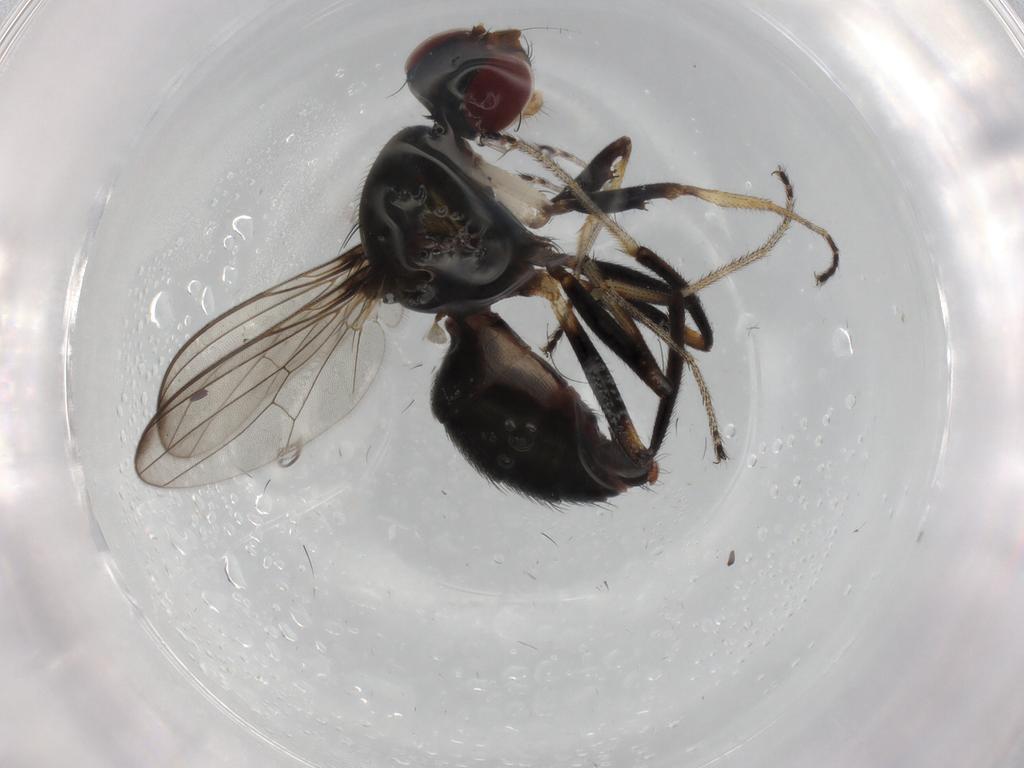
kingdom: Animalia
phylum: Arthropoda
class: Insecta
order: Diptera
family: Sepsidae
